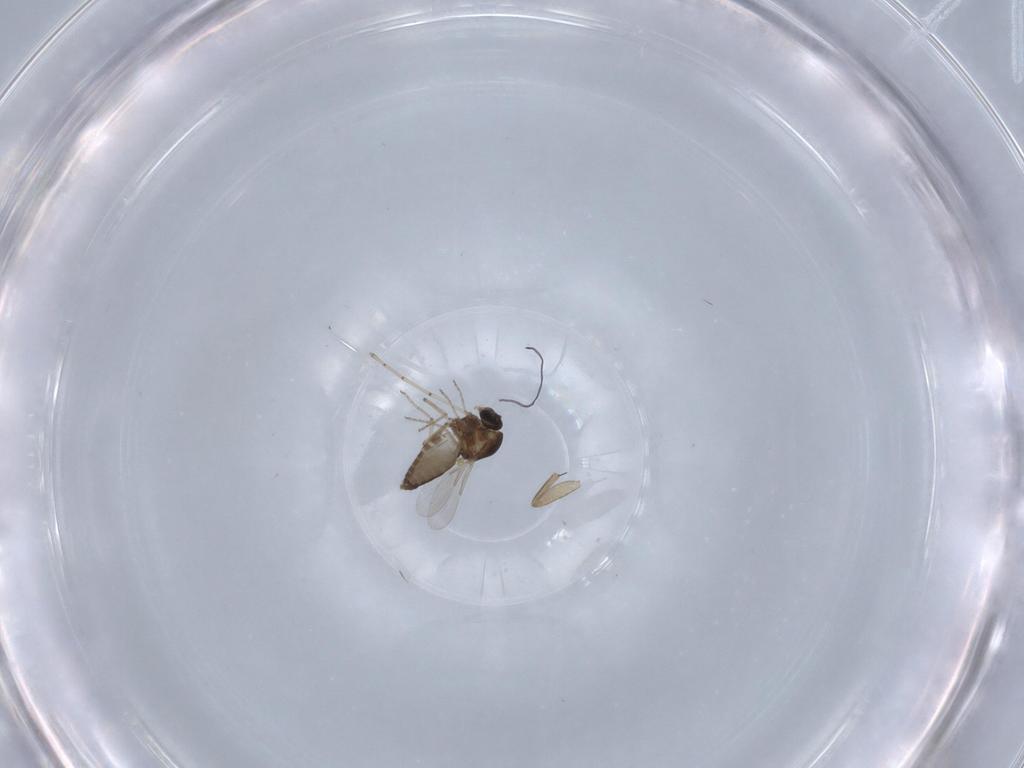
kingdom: Animalia
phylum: Arthropoda
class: Insecta
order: Diptera
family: Ceratopogonidae
